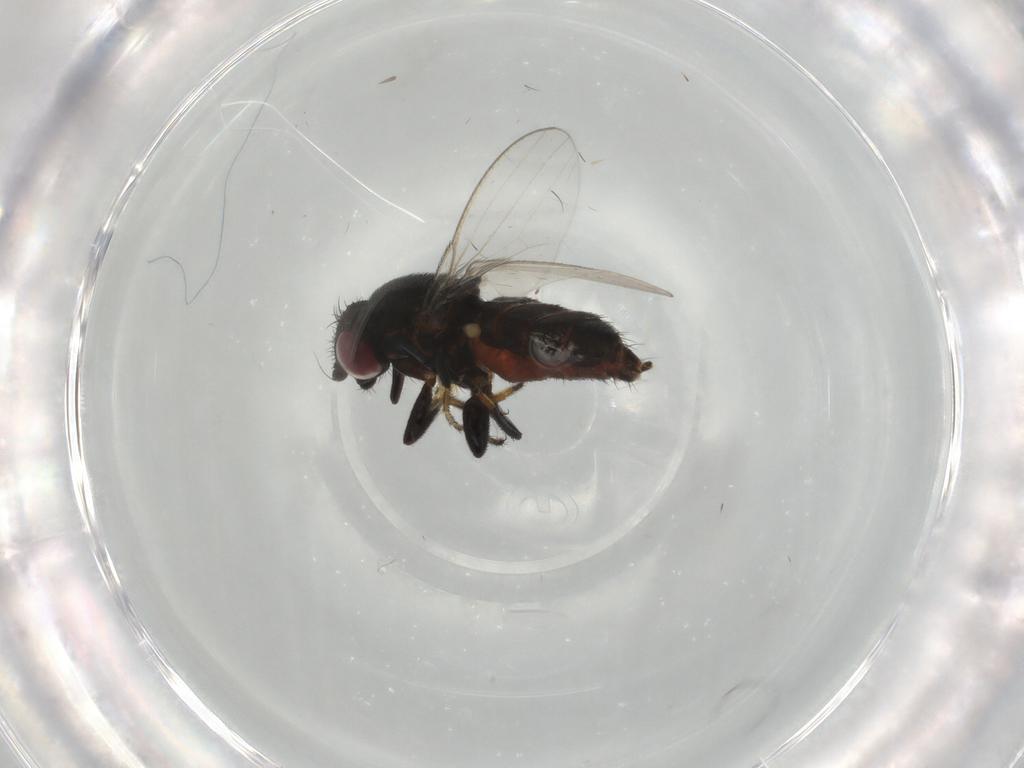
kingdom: Animalia
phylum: Arthropoda
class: Insecta
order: Diptera
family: Milichiidae
